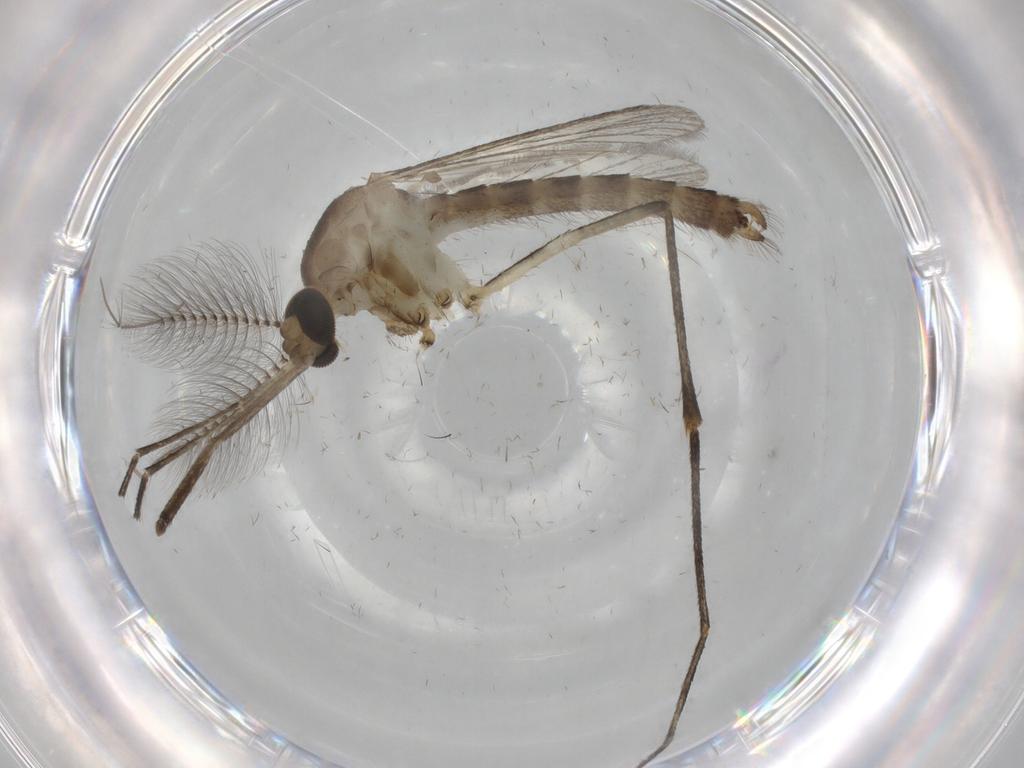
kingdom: Animalia
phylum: Arthropoda
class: Insecta
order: Diptera
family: Phoridae
